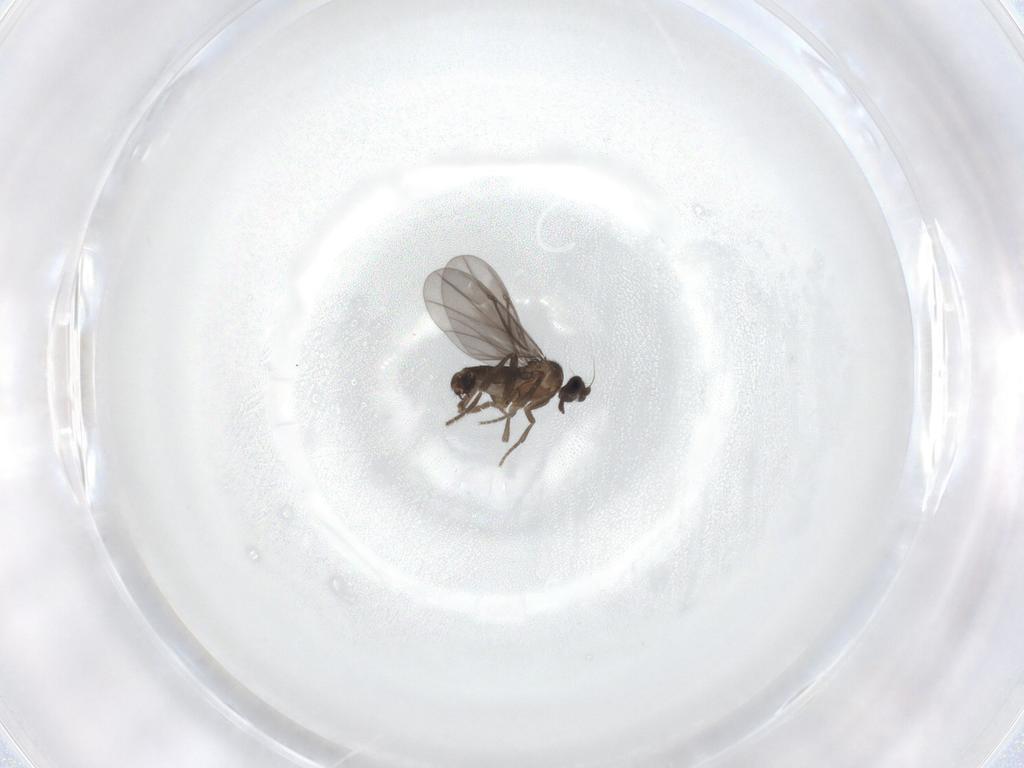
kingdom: Animalia
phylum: Arthropoda
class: Insecta
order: Diptera
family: Phoridae
